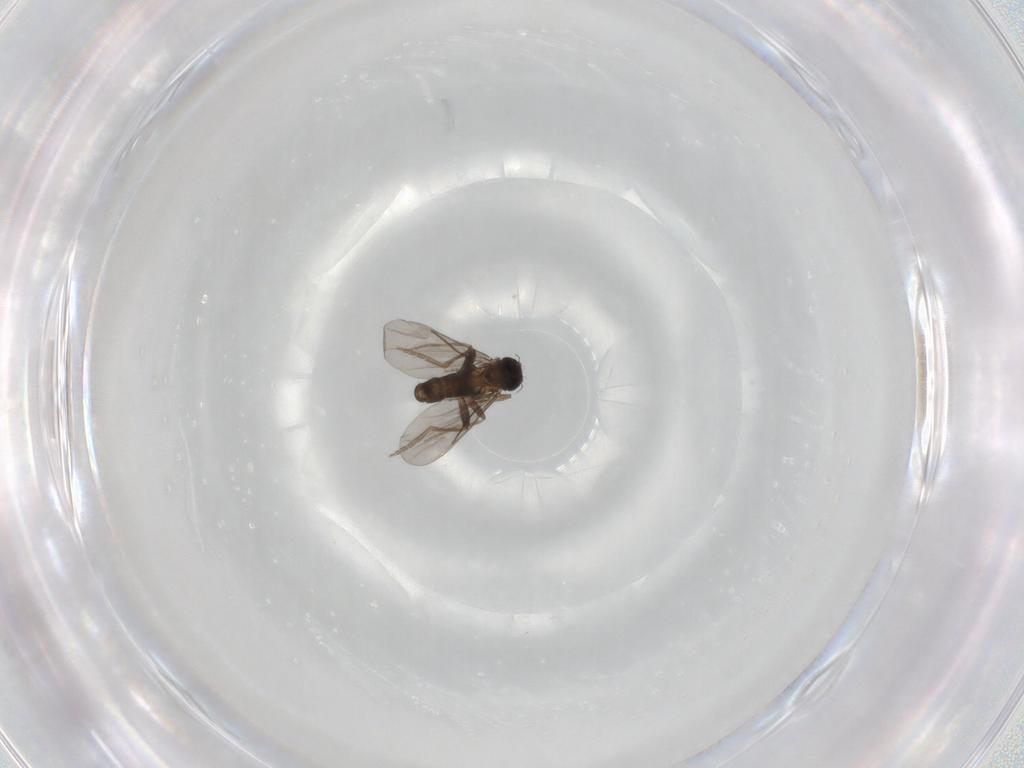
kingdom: Animalia
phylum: Arthropoda
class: Insecta
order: Diptera
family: Phoridae
